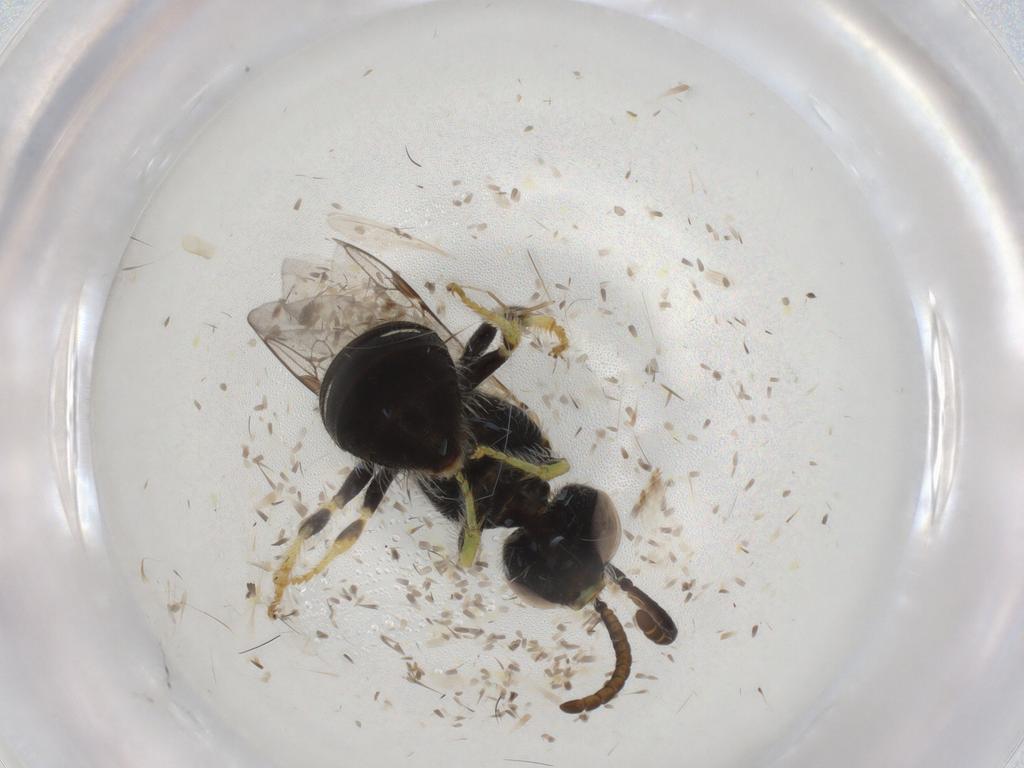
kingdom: Animalia
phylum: Arthropoda
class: Insecta
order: Hymenoptera
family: Halictidae
